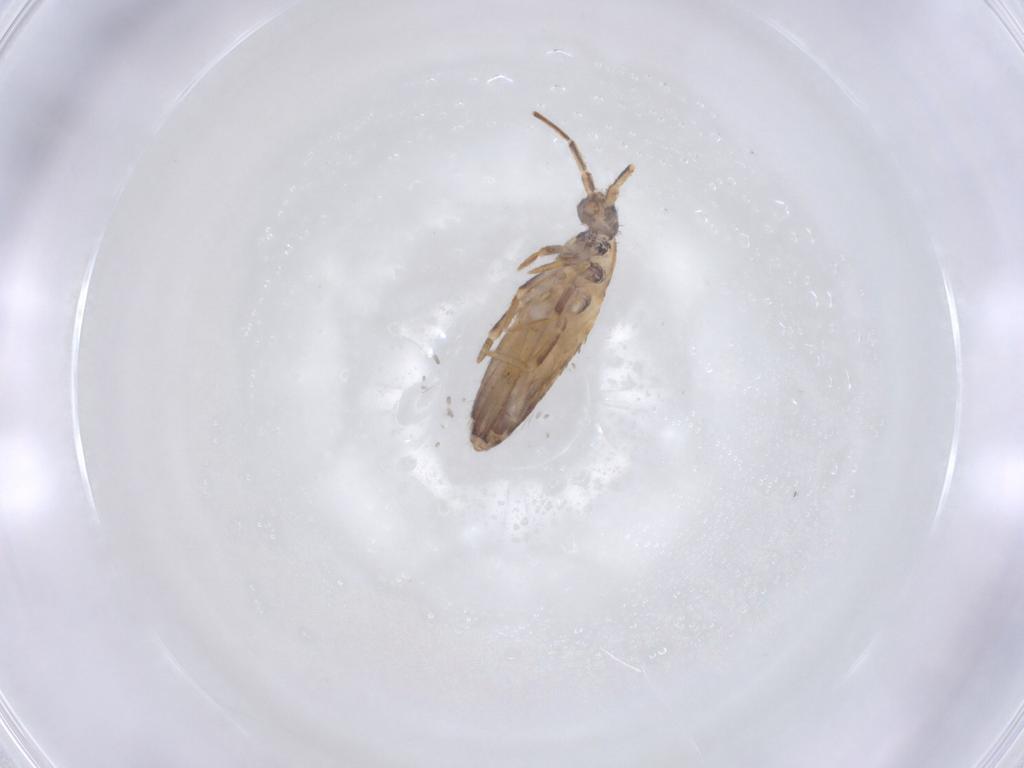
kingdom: Animalia
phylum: Arthropoda
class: Collembola
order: Entomobryomorpha
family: Entomobryidae
